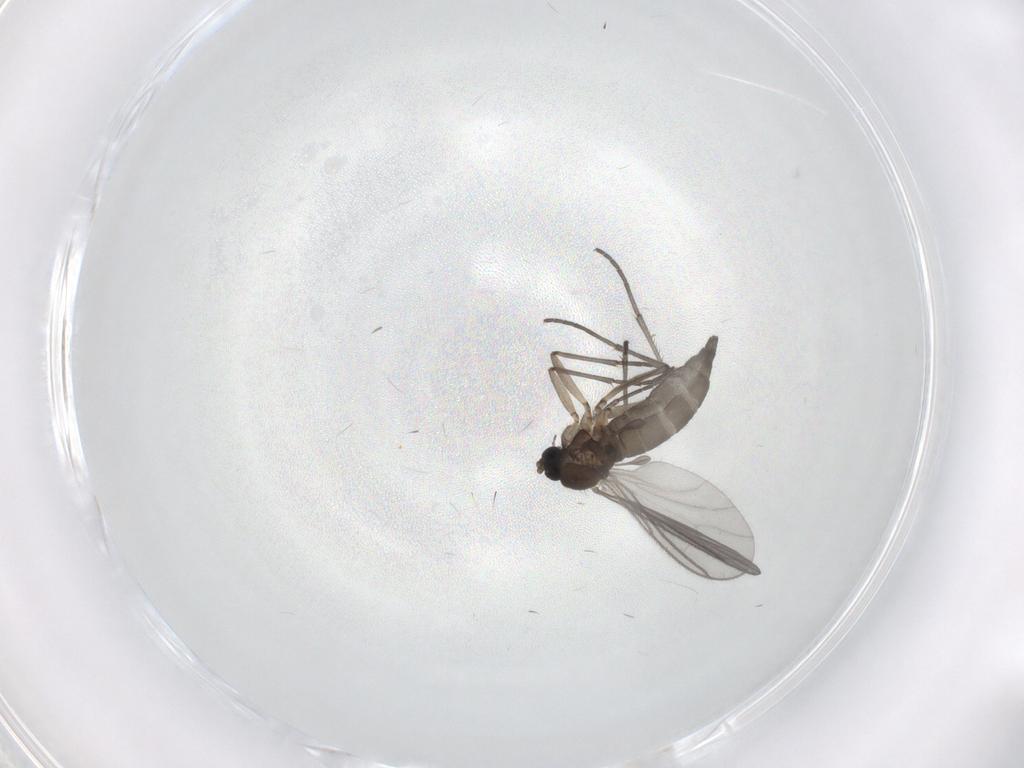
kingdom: Animalia
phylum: Arthropoda
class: Insecta
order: Diptera
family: Sciaridae
